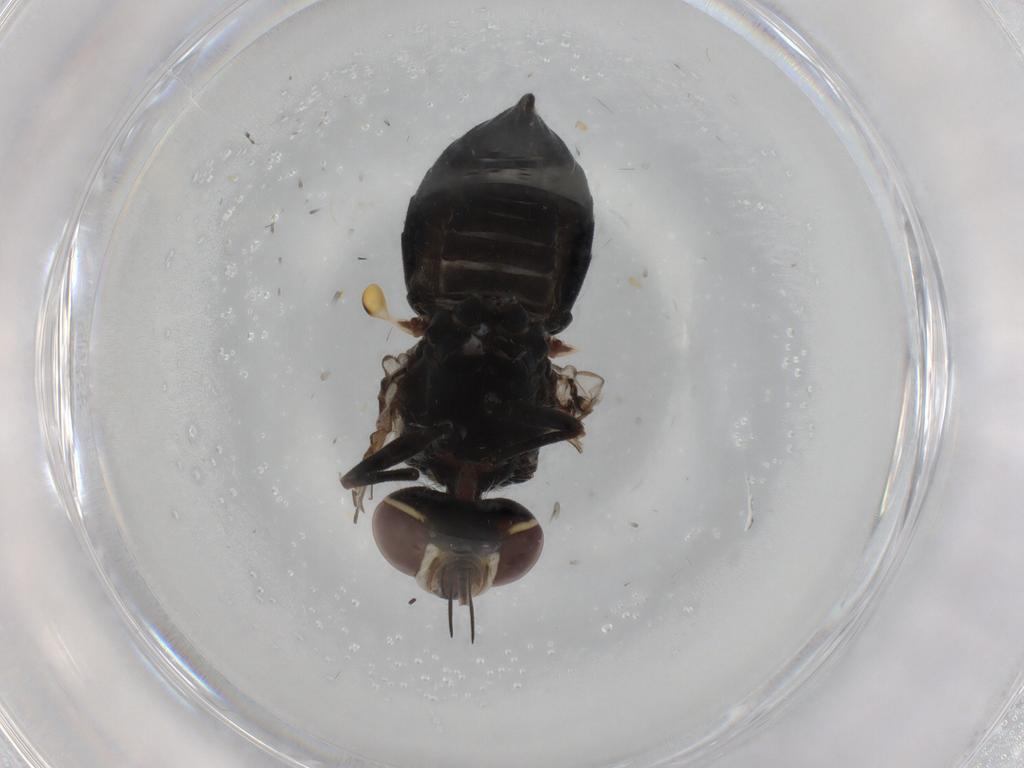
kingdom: Animalia
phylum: Arthropoda
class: Insecta
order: Diptera
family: Bombyliidae
